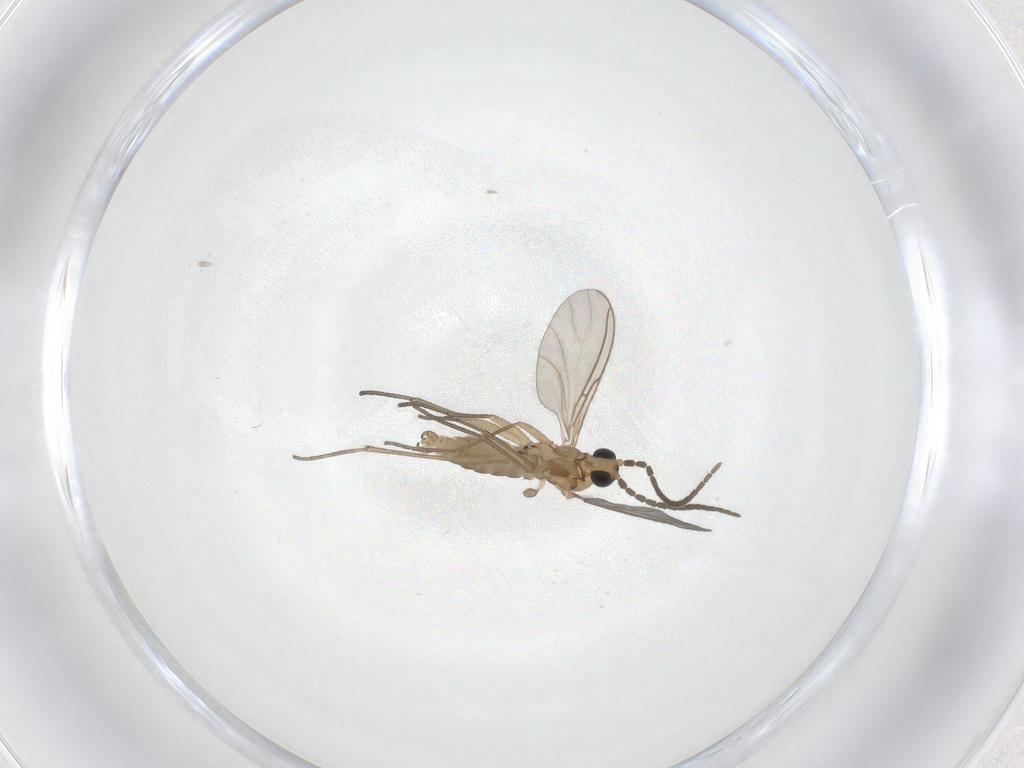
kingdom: Animalia
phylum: Arthropoda
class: Insecta
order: Diptera
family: Sciaridae
